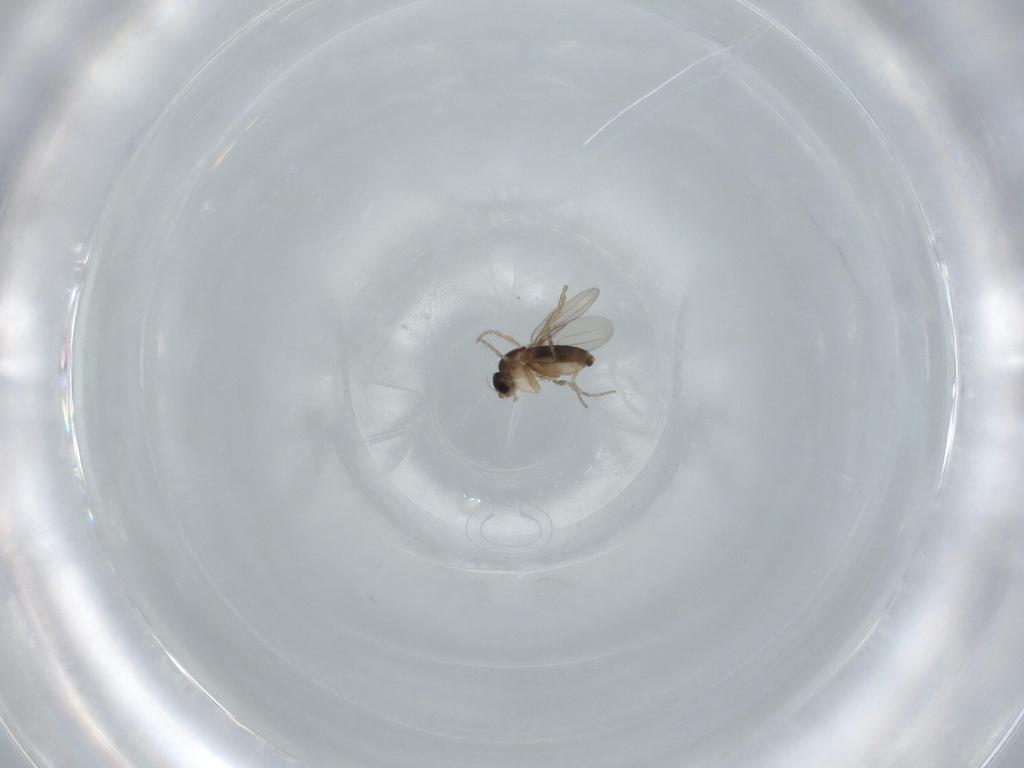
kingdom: Animalia
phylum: Arthropoda
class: Insecta
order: Diptera
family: Phoridae
